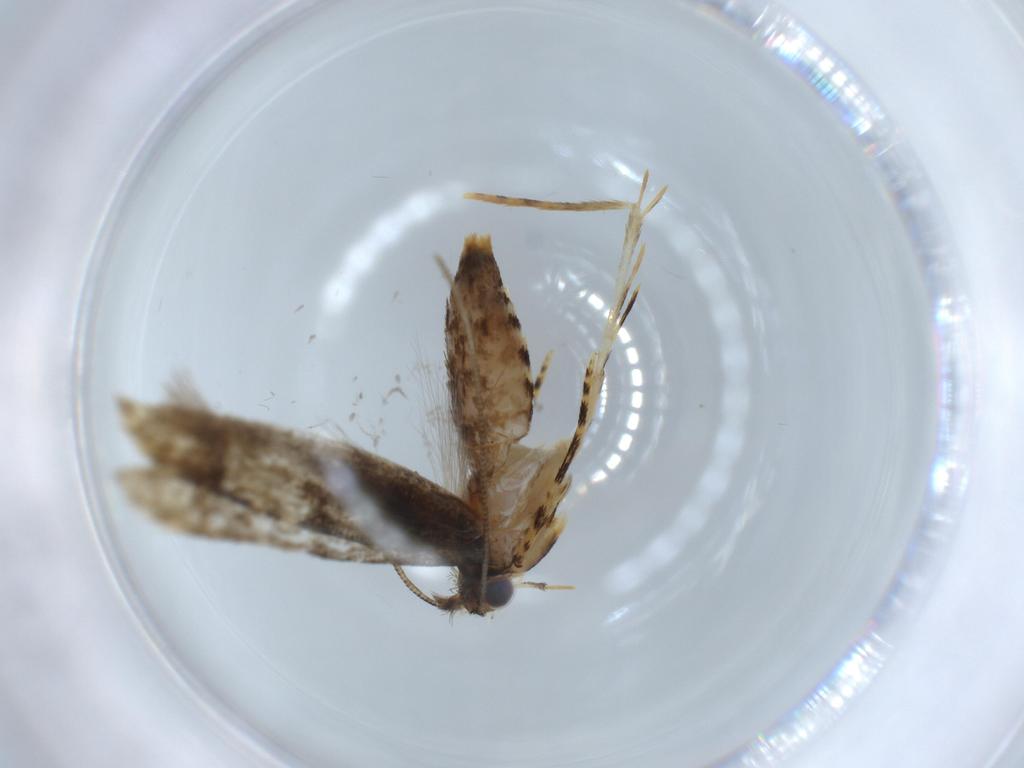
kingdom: Animalia
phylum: Arthropoda
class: Insecta
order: Lepidoptera
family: Tineidae
